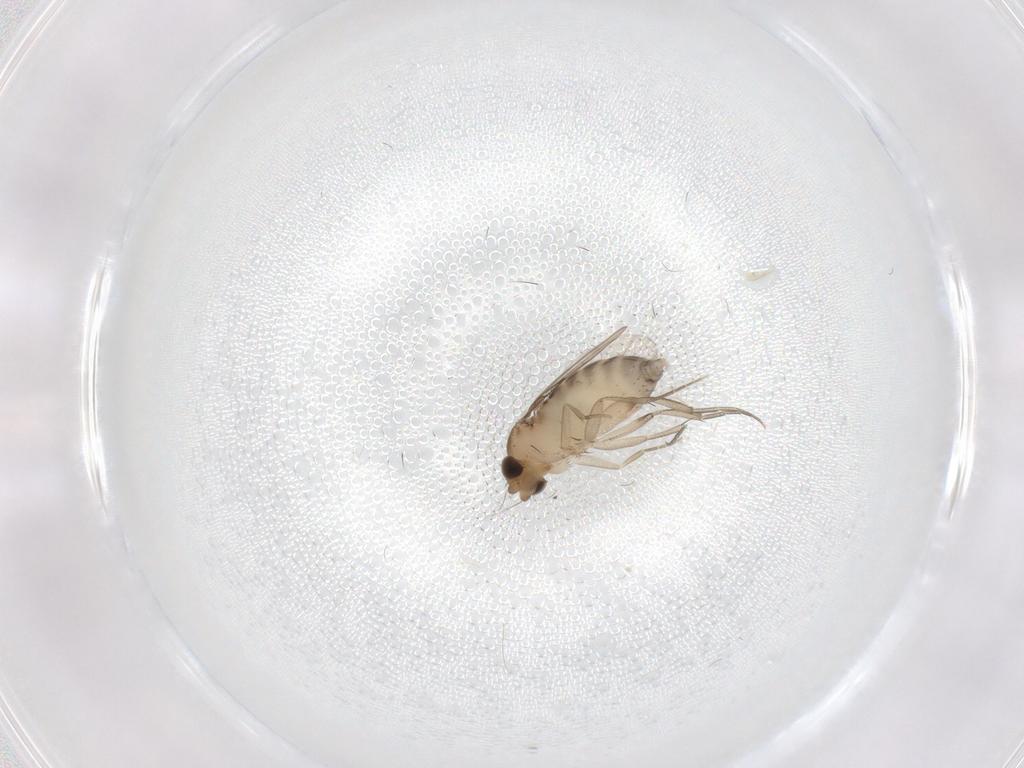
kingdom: Animalia
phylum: Arthropoda
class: Insecta
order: Diptera
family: Phoridae
